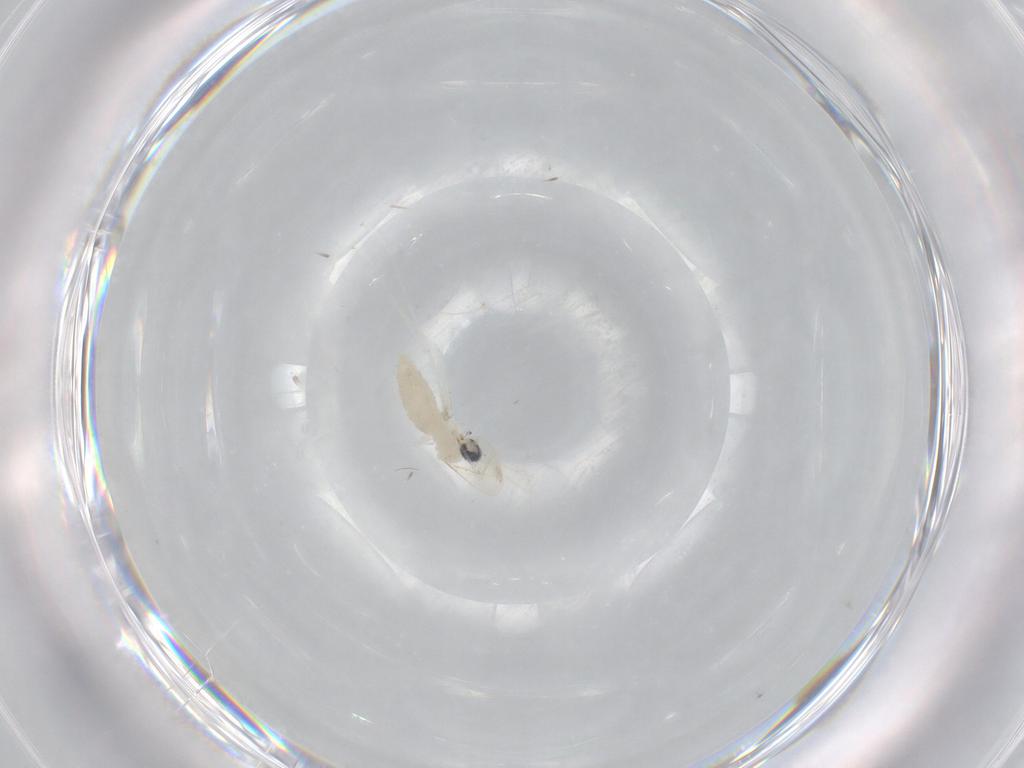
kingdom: Animalia
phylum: Arthropoda
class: Insecta
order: Diptera
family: Cecidomyiidae
